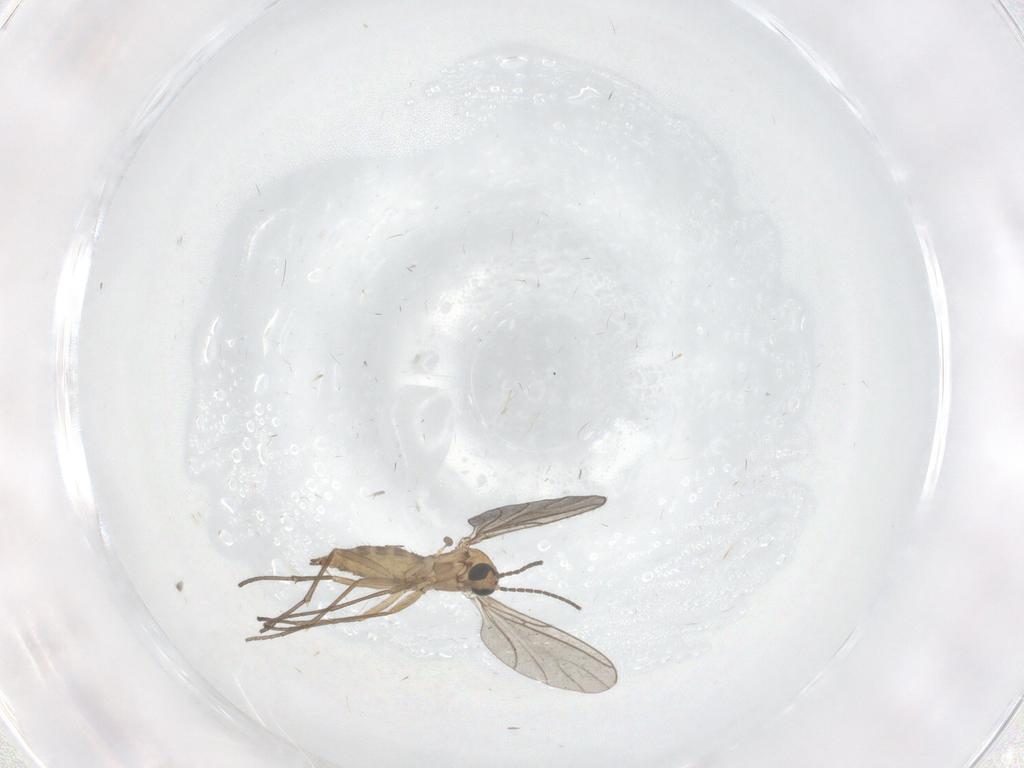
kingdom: Animalia
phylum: Arthropoda
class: Insecta
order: Diptera
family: Sciaridae
